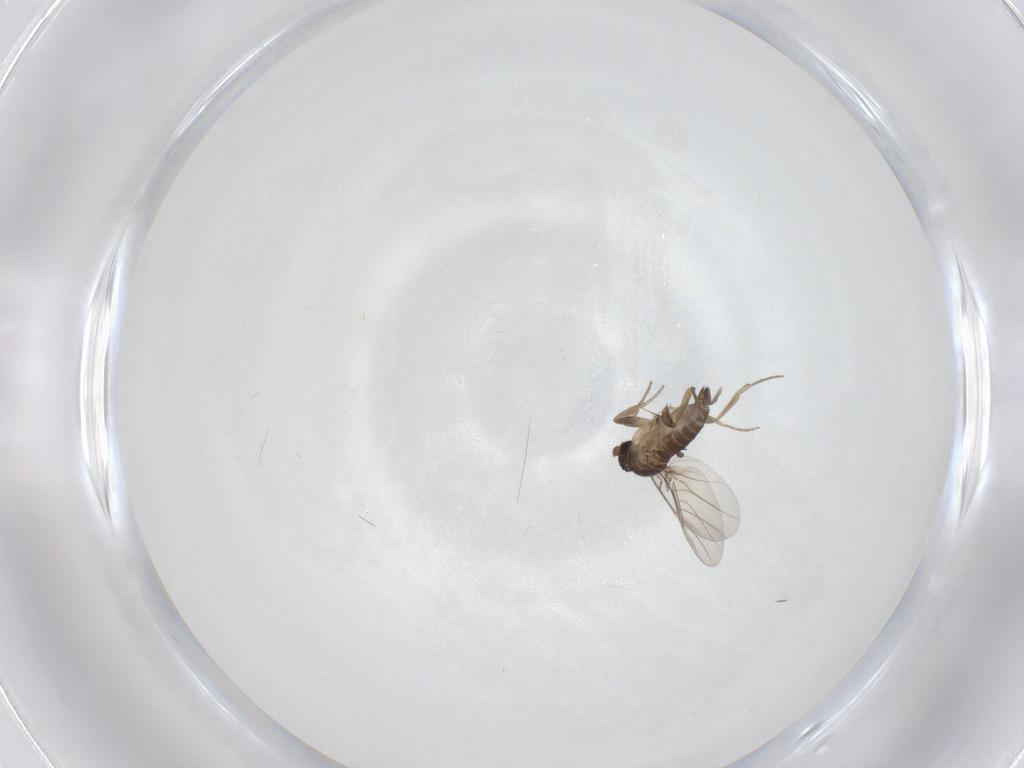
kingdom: Animalia
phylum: Arthropoda
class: Insecta
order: Diptera
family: Phoridae
